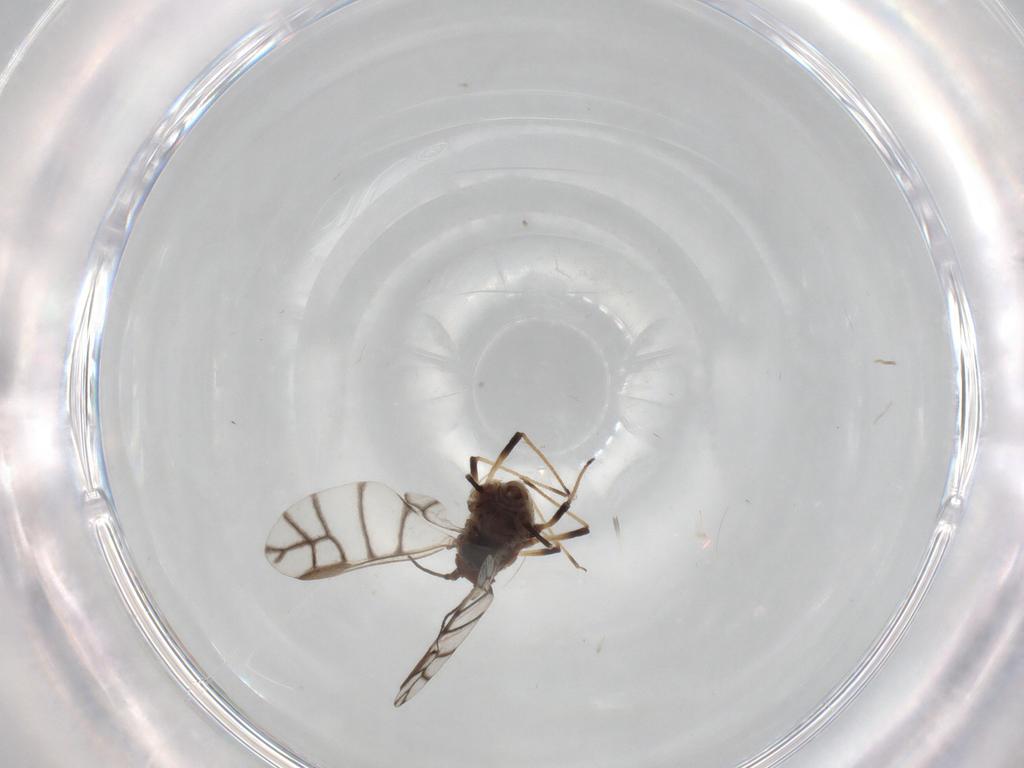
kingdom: Animalia
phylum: Arthropoda
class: Insecta
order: Hemiptera
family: Aphididae
